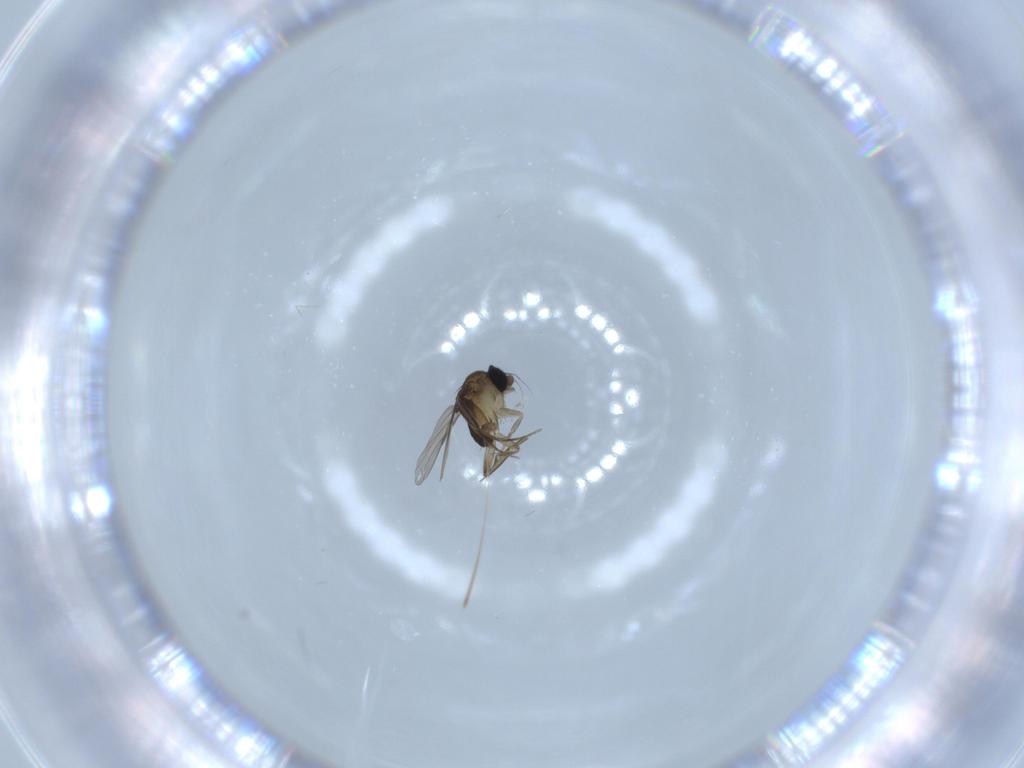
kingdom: Animalia
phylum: Arthropoda
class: Insecta
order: Diptera
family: Phoridae
